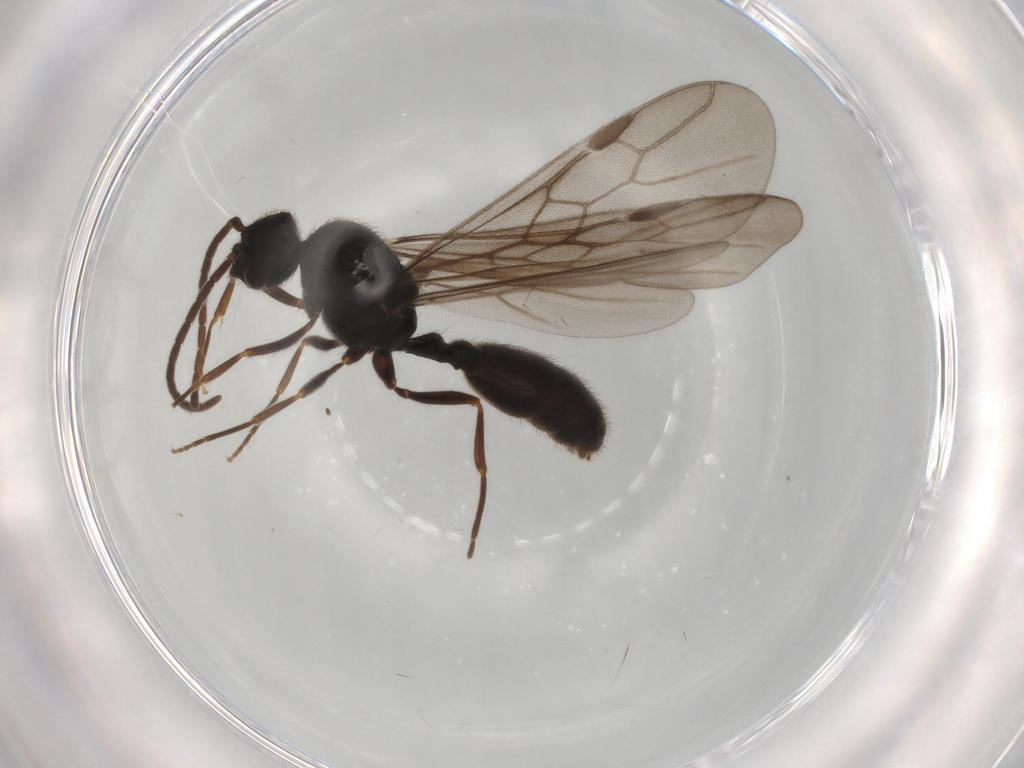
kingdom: Animalia
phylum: Arthropoda
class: Insecta
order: Hymenoptera
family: Formicidae
